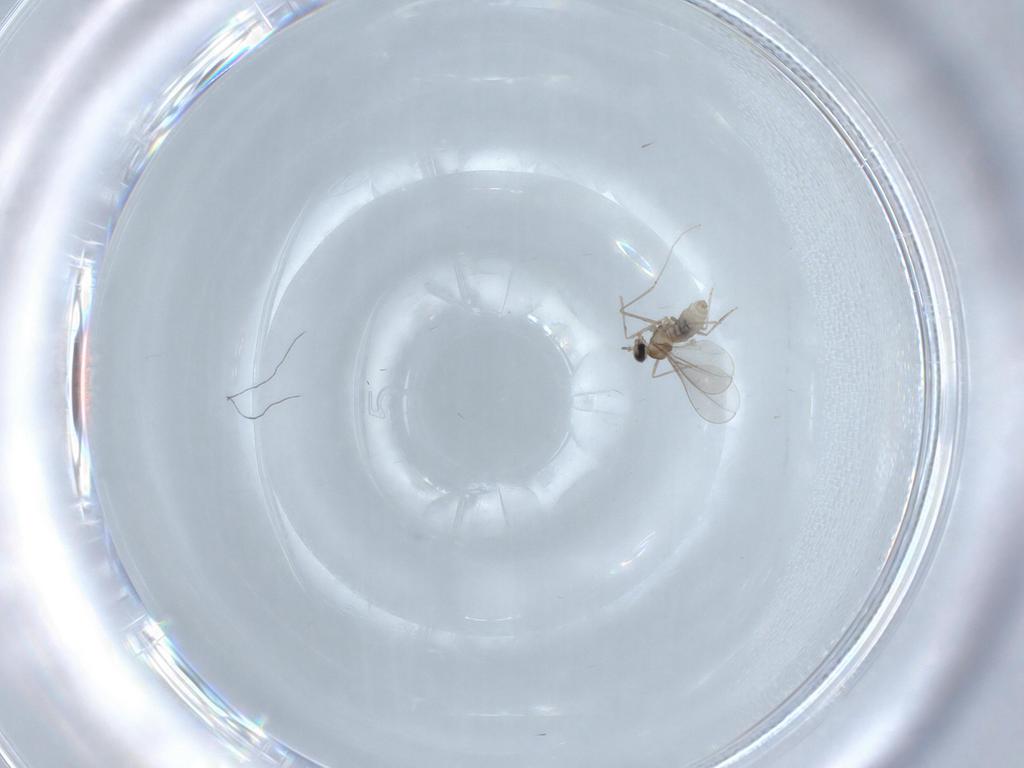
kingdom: Animalia
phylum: Arthropoda
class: Insecta
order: Diptera
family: Cecidomyiidae
